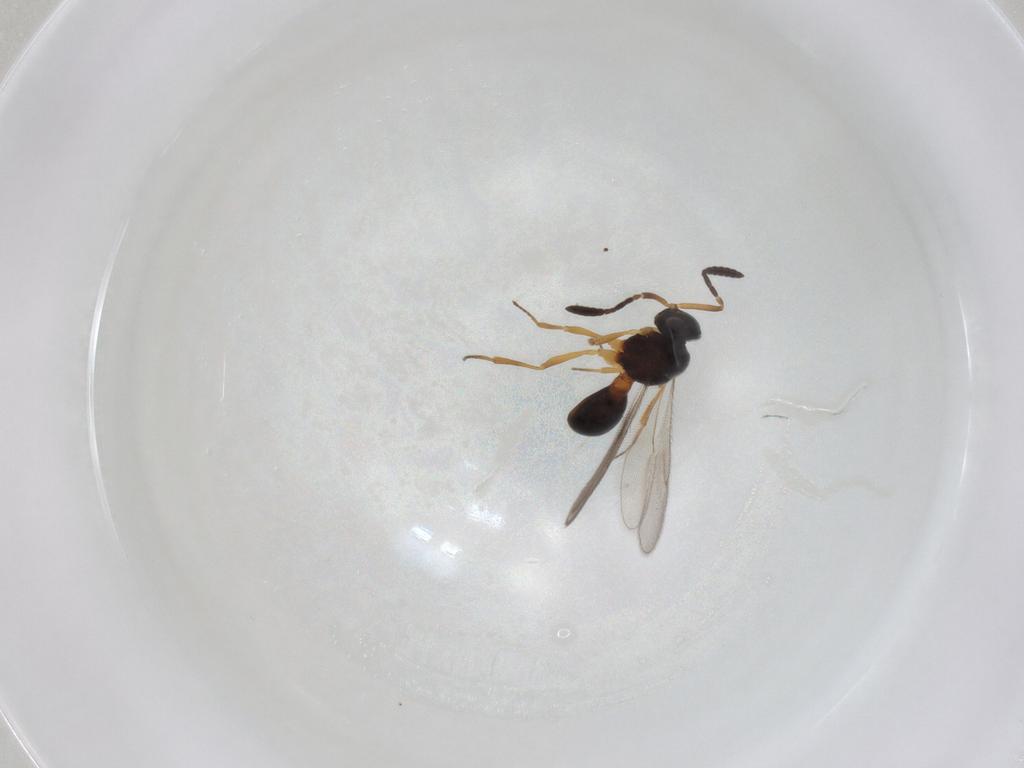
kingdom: Animalia
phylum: Arthropoda
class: Insecta
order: Hymenoptera
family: Scelionidae
